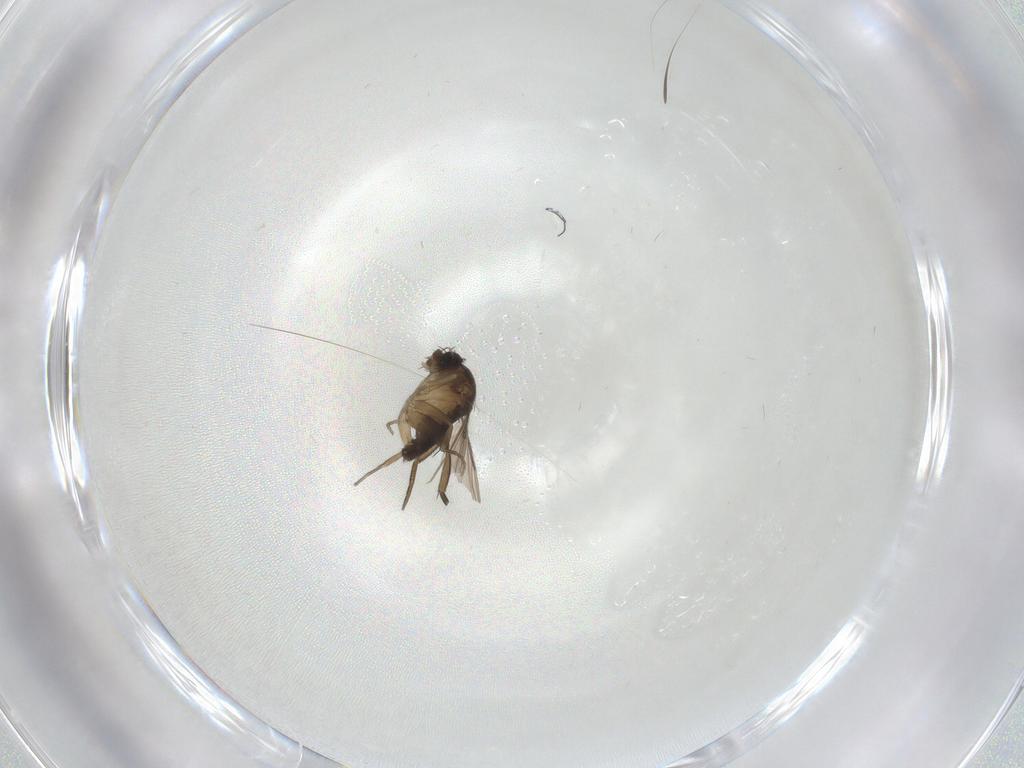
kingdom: Animalia
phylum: Arthropoda
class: Insecta
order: Diptera
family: Phoridae
